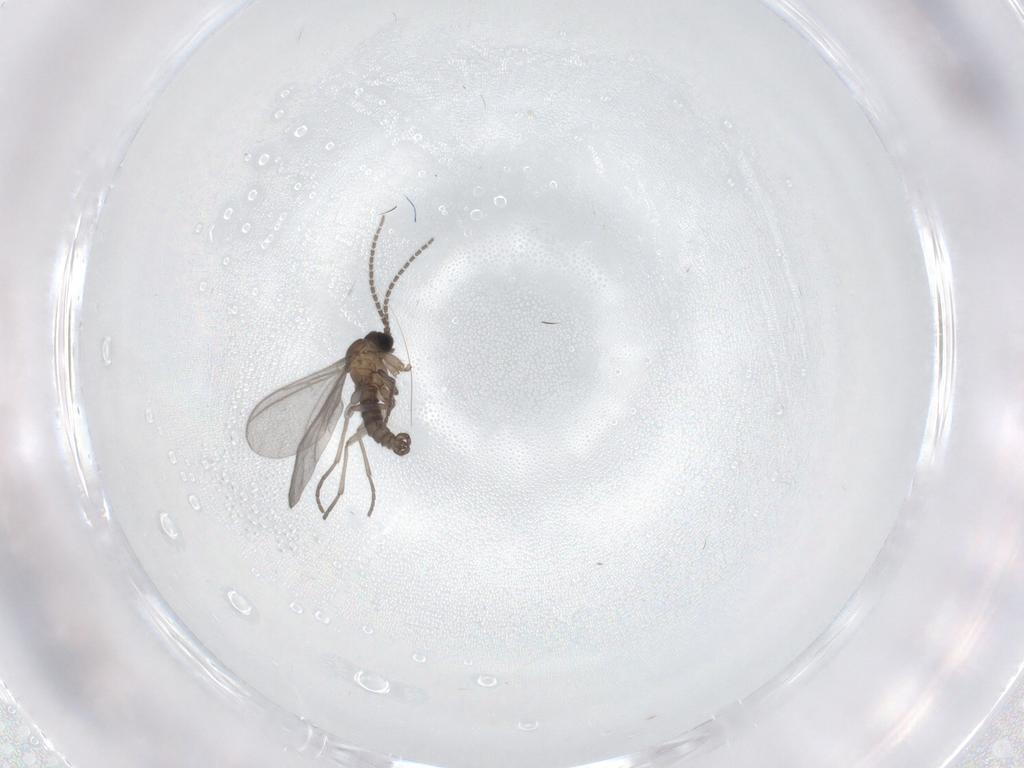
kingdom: Animalia
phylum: Arthropoda
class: Insecta
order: Diptera
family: Sciaridae
